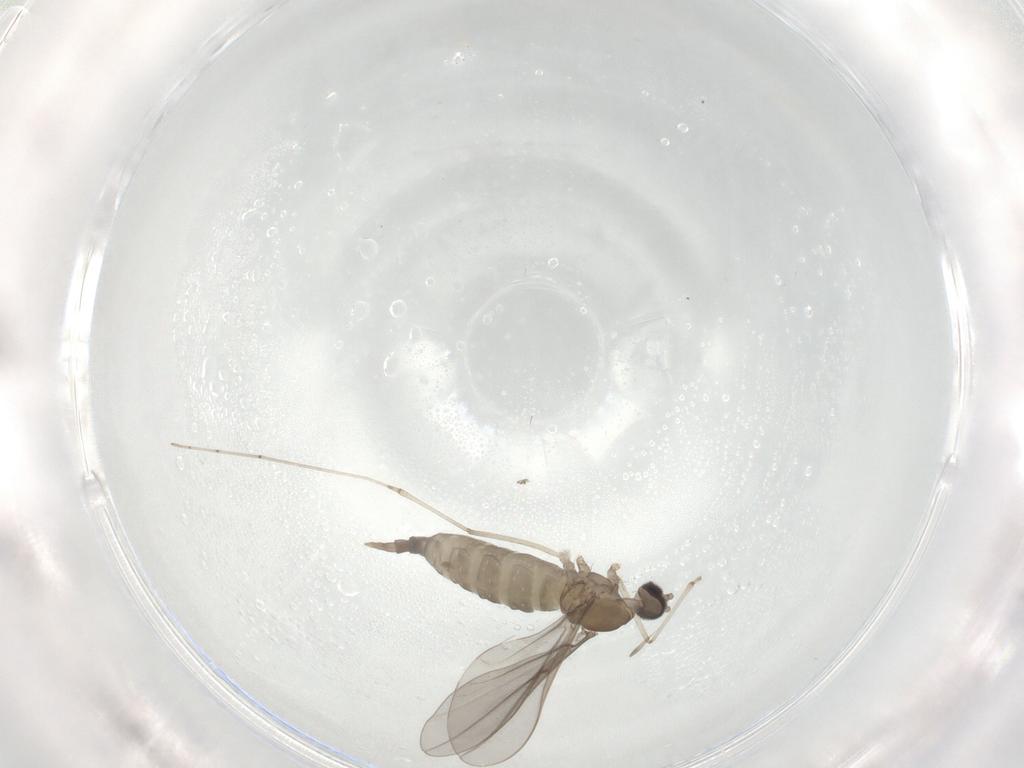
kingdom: Animalia
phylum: Arthropoda
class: Insecta
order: Diptera
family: Cecidomyiidae
